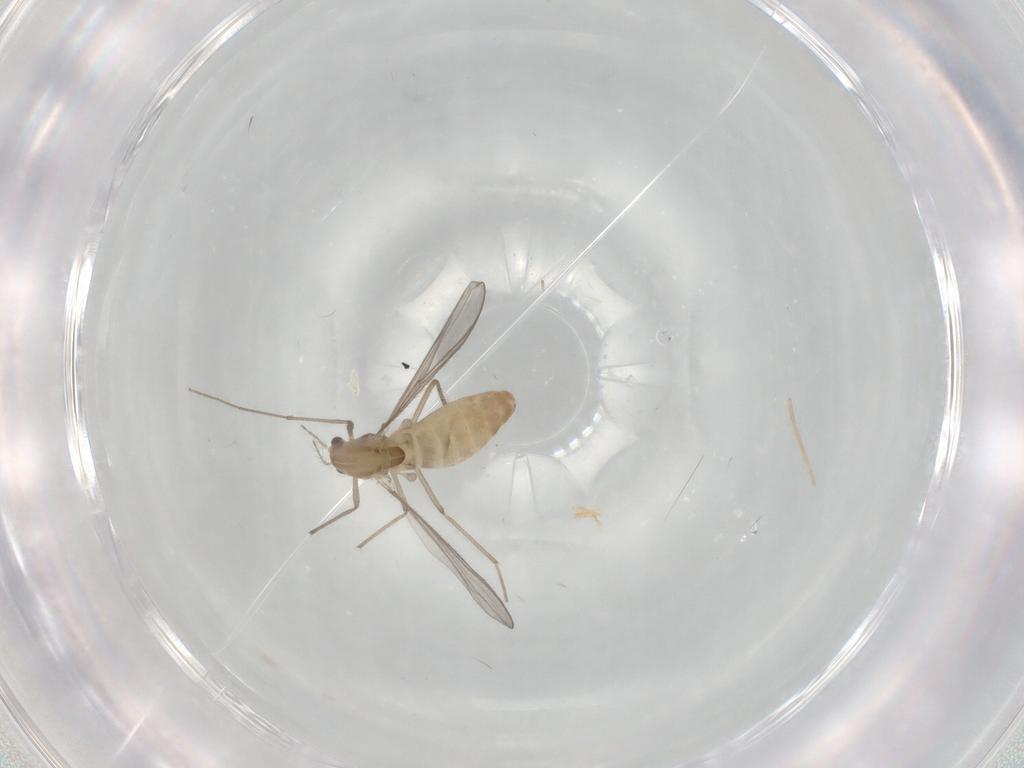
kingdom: Animalia
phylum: Arthropoda
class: Insecta
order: Diptera
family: Chironomidae
